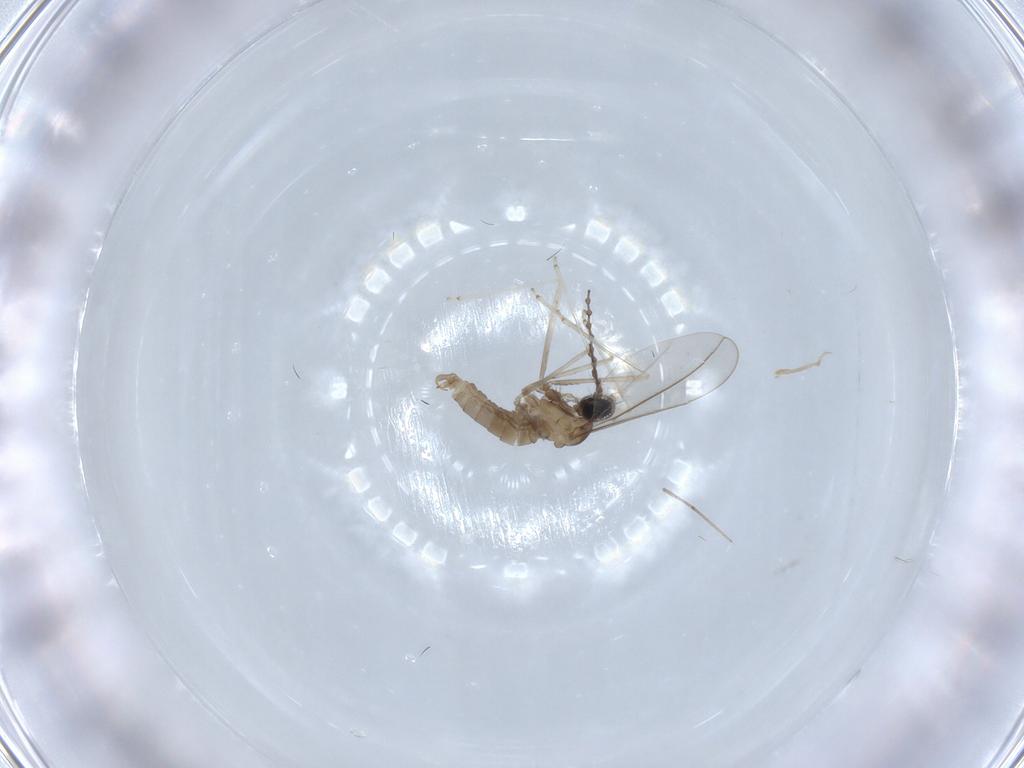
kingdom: Animalia
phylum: Arthropoda
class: Insecta
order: Diptera
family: Cecidomyiidae
